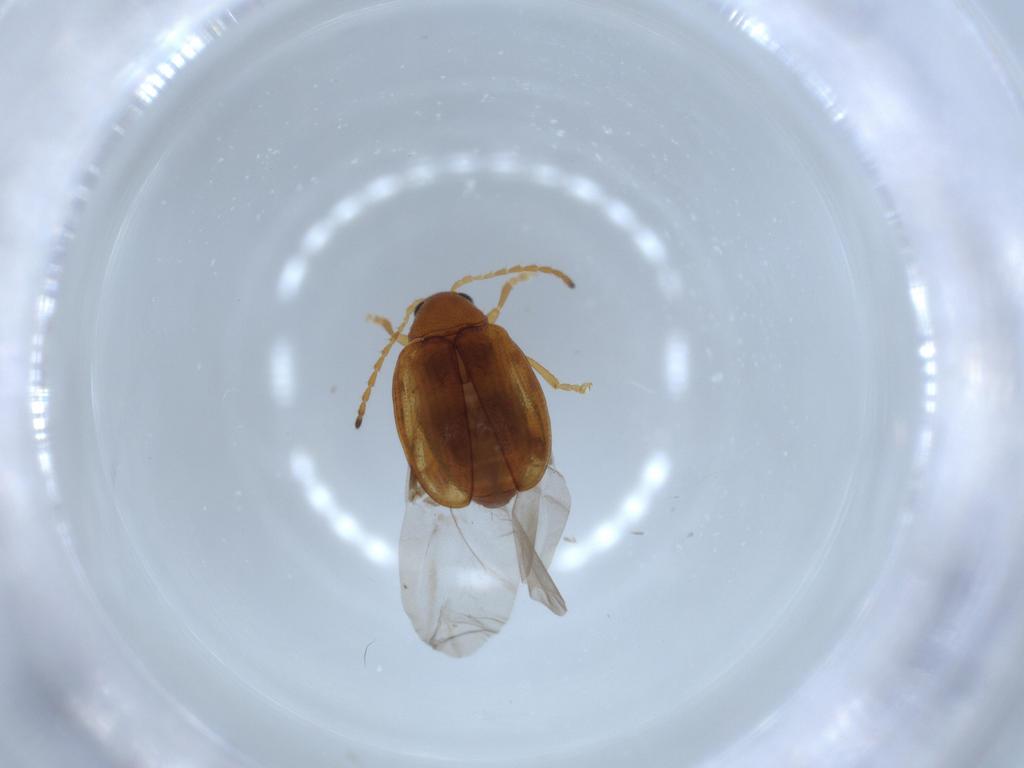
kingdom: Animalia
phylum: Arthropoda
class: Insecta
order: Coleoptera
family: Chrysomelidae
